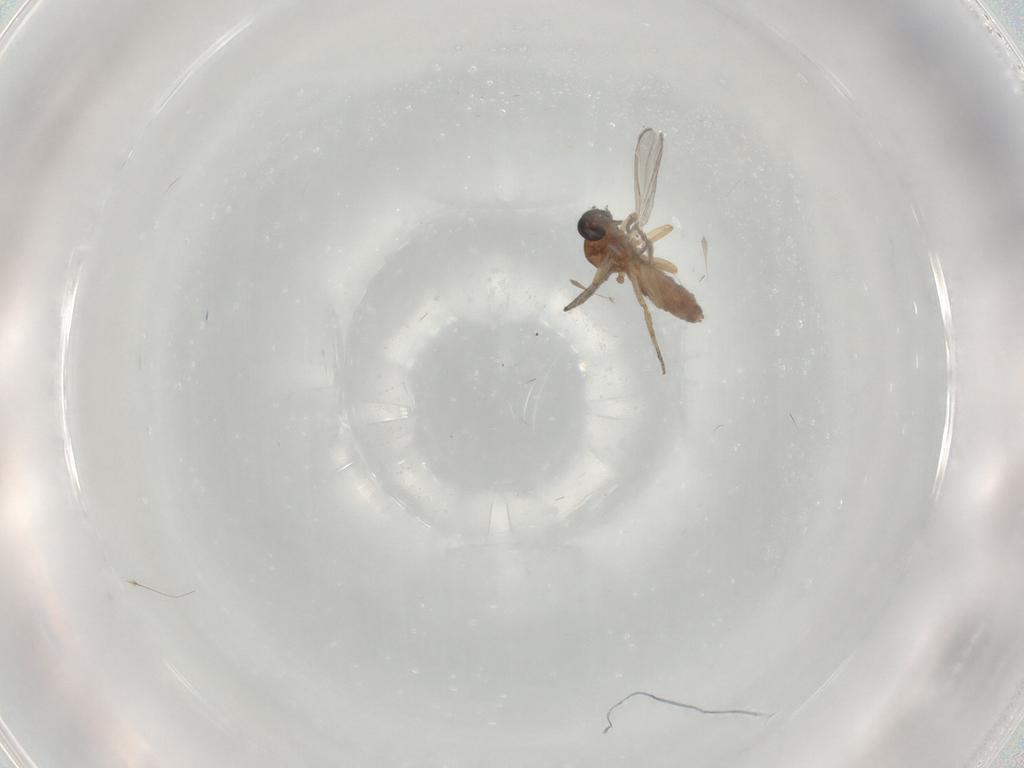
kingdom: Animalia
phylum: Arthropoda
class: Insecta
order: Diptera
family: Ceratopogonidae
